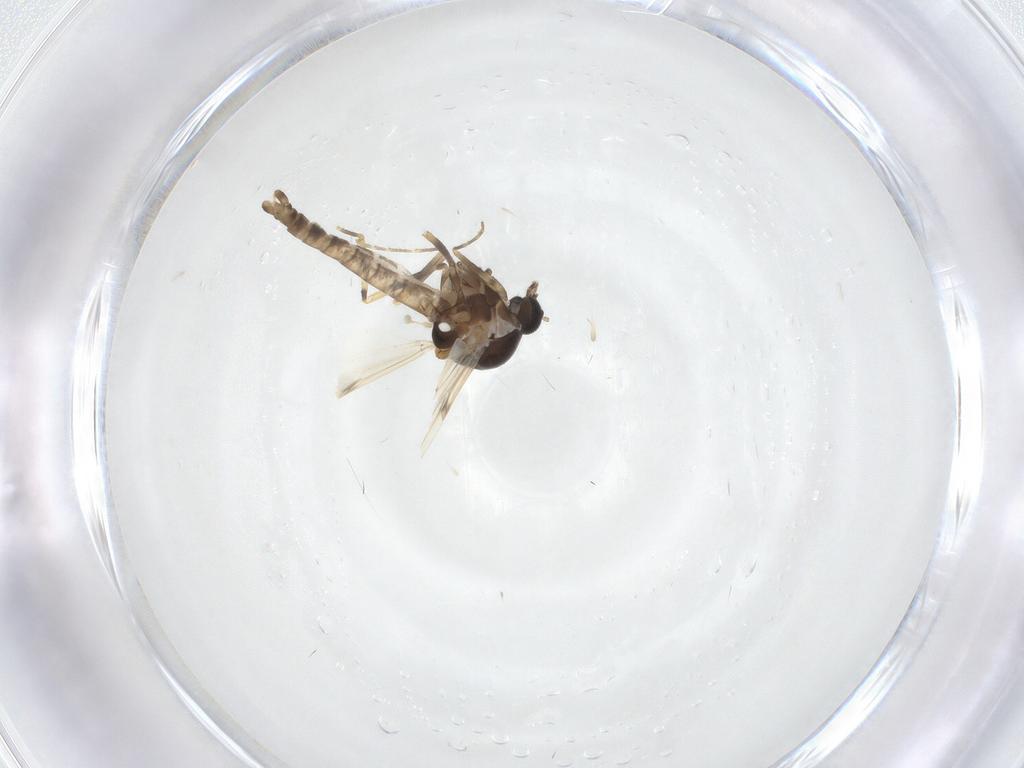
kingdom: Animalia
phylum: Arthropoda
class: Insecta
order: Diptera
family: Ceratopogonidae
